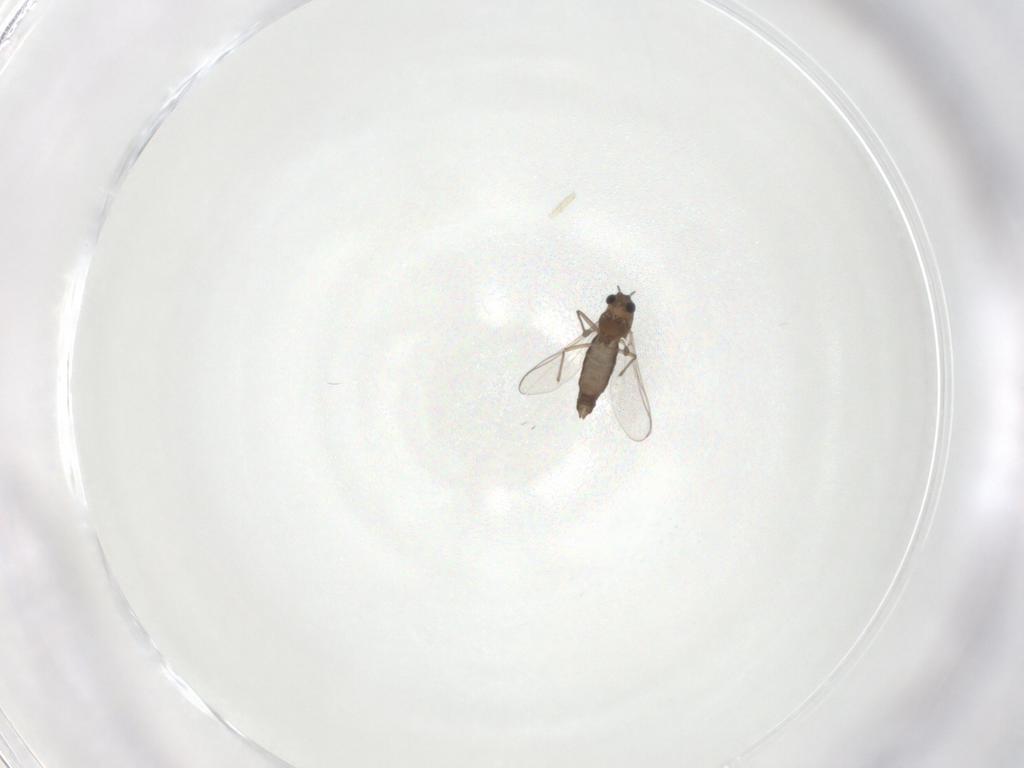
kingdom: Animalia
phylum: Arthropoda
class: Insecta
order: Diptera
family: Chironomidae
